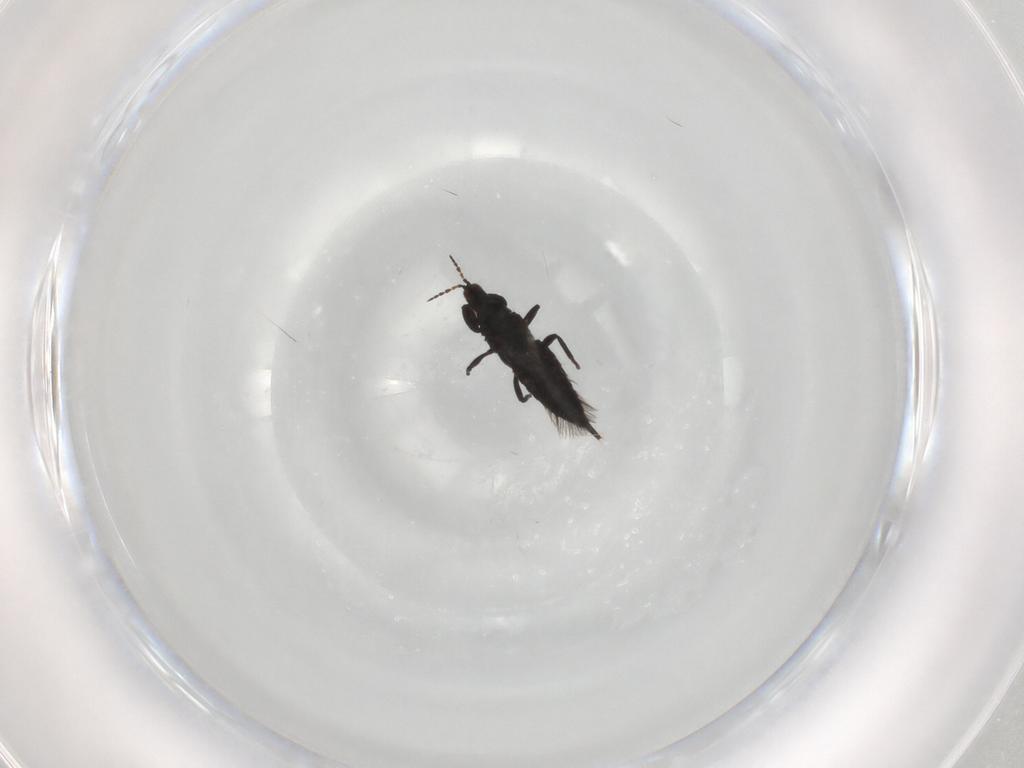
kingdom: Animalia
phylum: Arthropoda
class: Insecta
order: Thysanoptera
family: Phlaeothripidae
